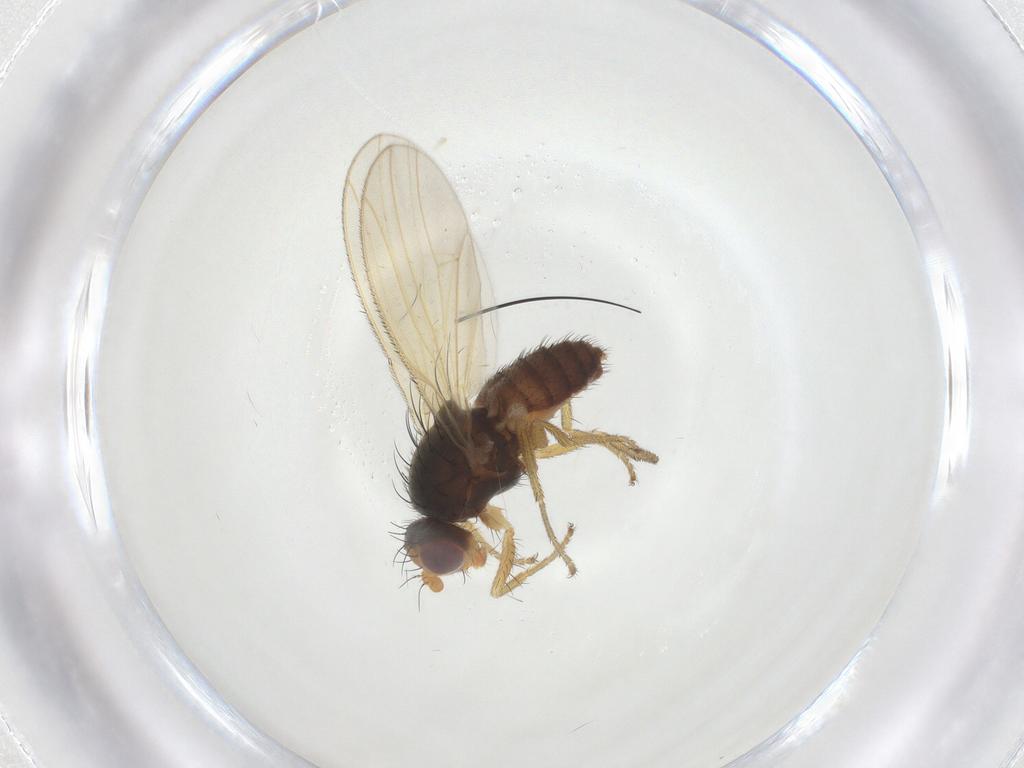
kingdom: Animalia
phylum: Arthropoda
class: Insecta
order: Diptera
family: Heleomyzidae
